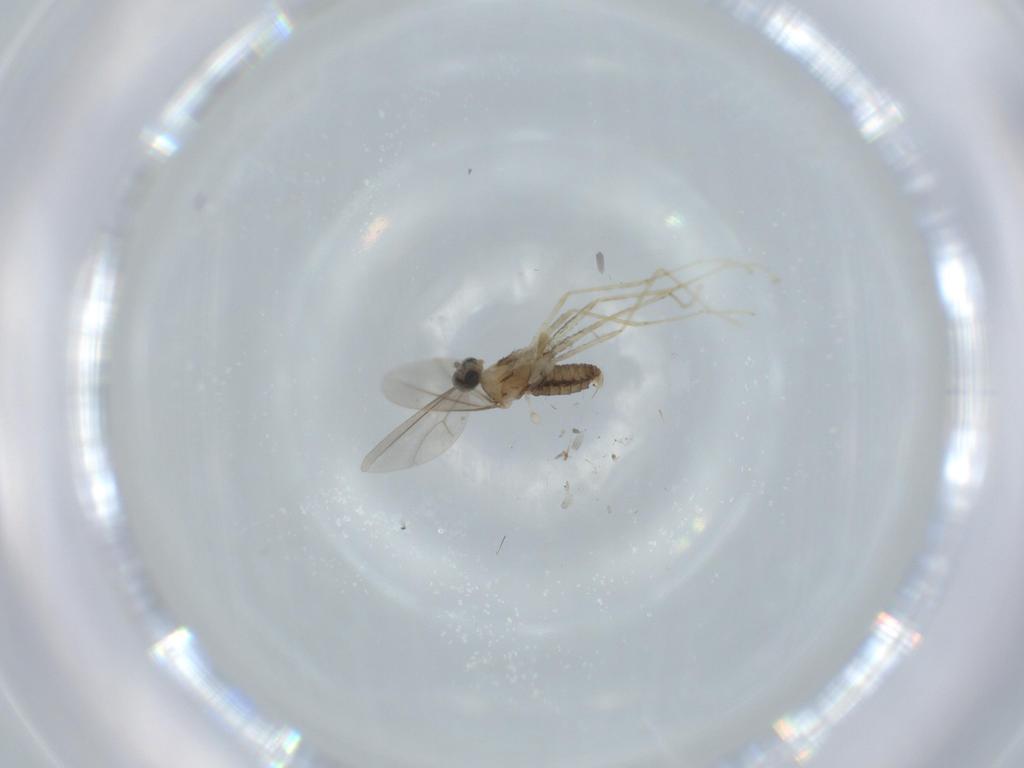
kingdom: Animalia
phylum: Arthropoda
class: Insecta
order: Diptera
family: Cecidomyiidae
